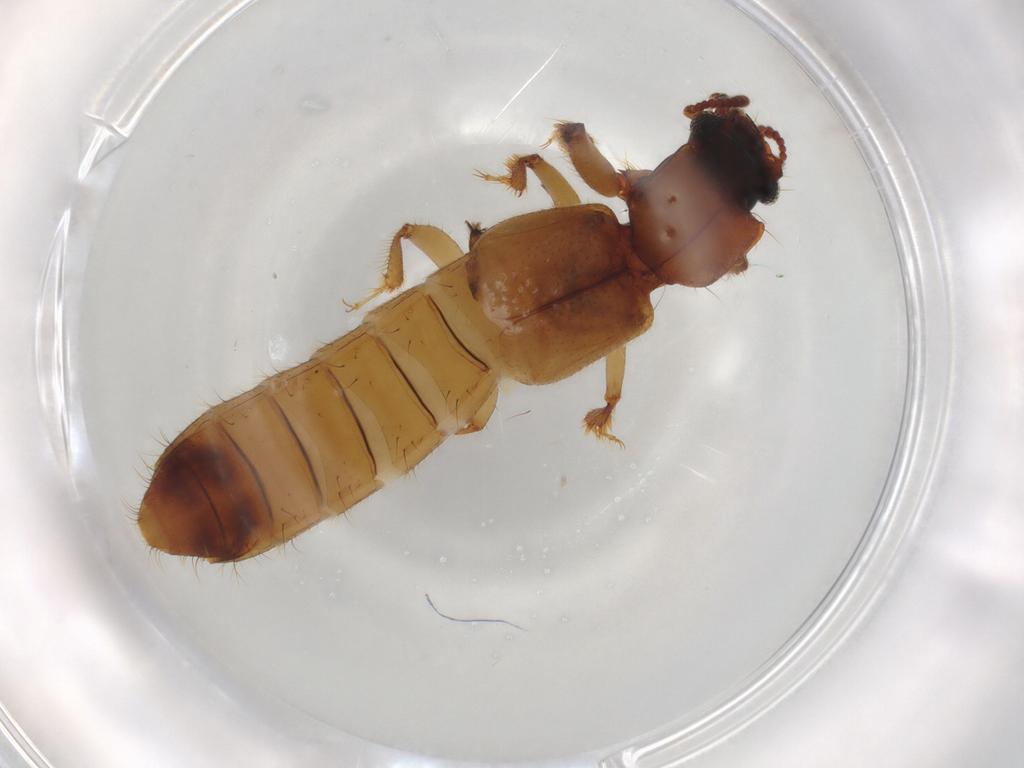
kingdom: Animalia
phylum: Arthropoda
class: Insecta
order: Coleoptera
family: Staphylinidae
